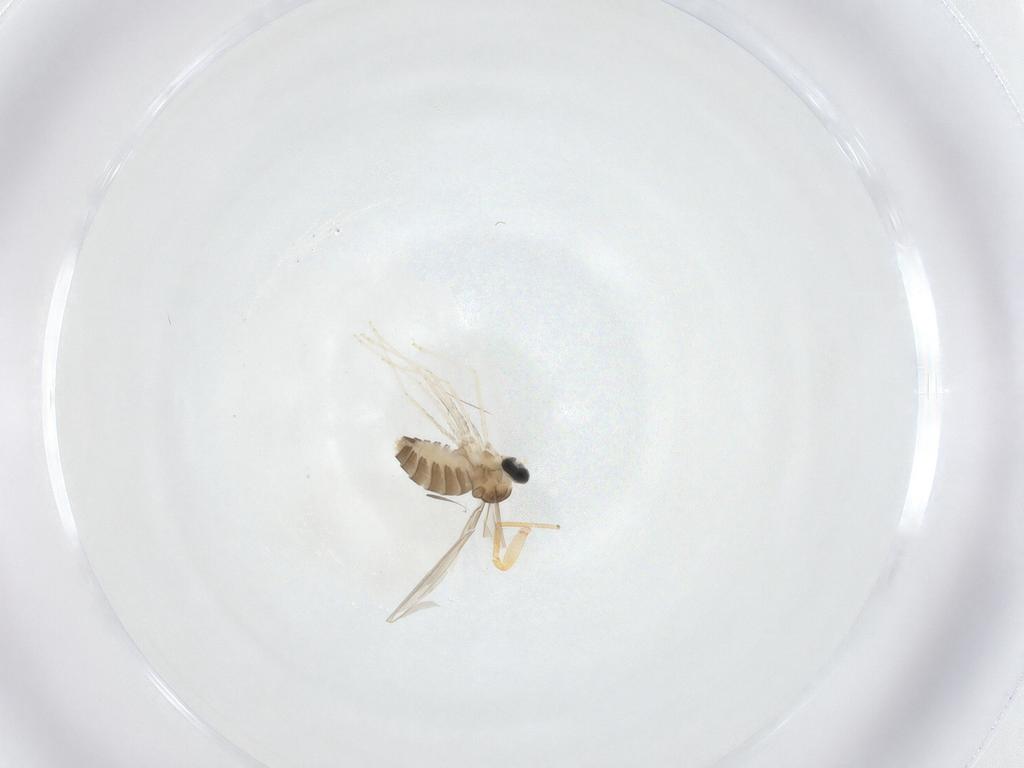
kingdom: Animalia
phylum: Arthropoda
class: Insecta
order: Diptera
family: Cecidomyiidae
